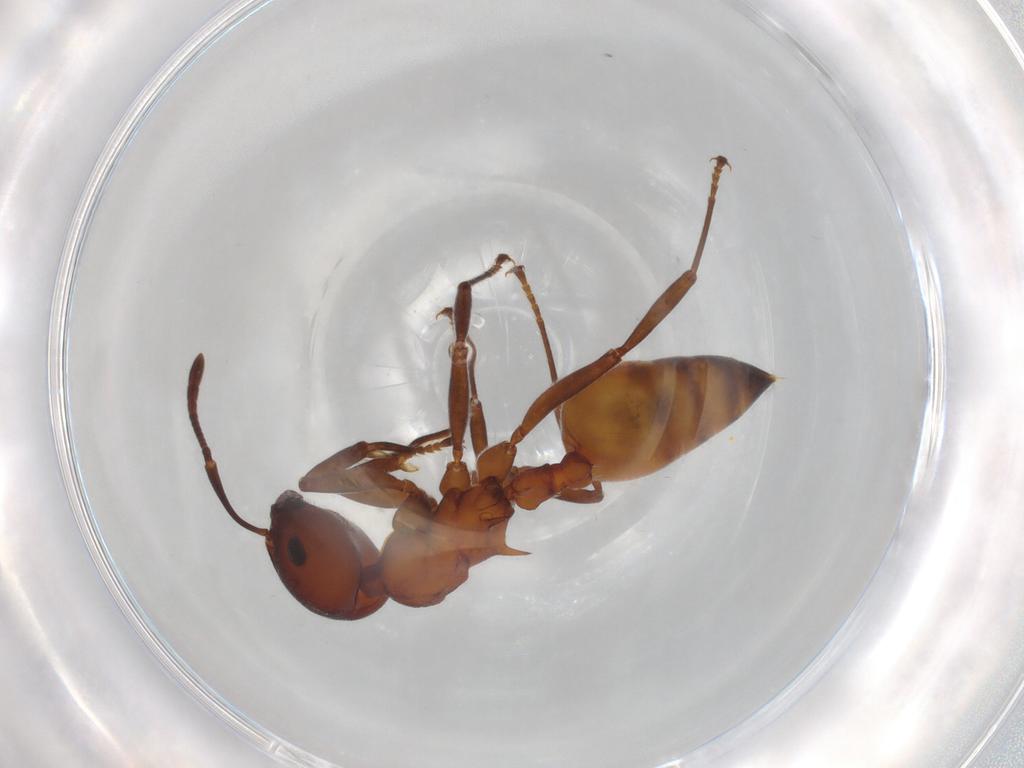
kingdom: Animalia
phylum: Arthropoda
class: Insecta
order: Hymenoptera
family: Formicidae
